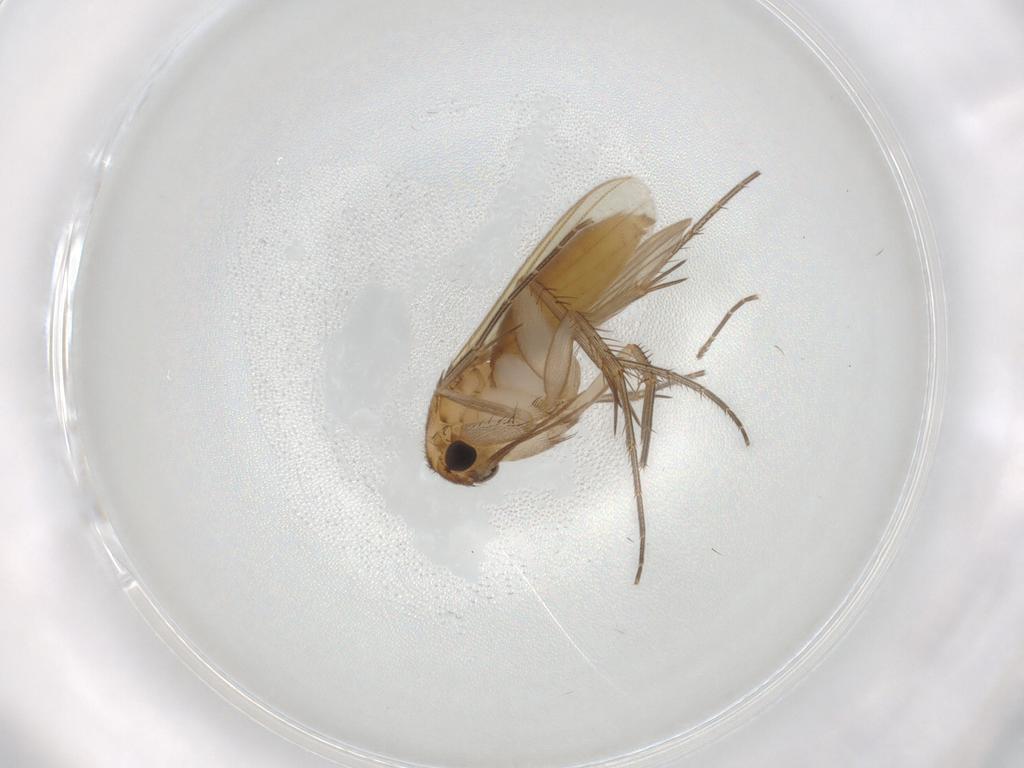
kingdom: Animalia
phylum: Arthropoda
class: Insecta
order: Diptera
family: Mycetophilidae
